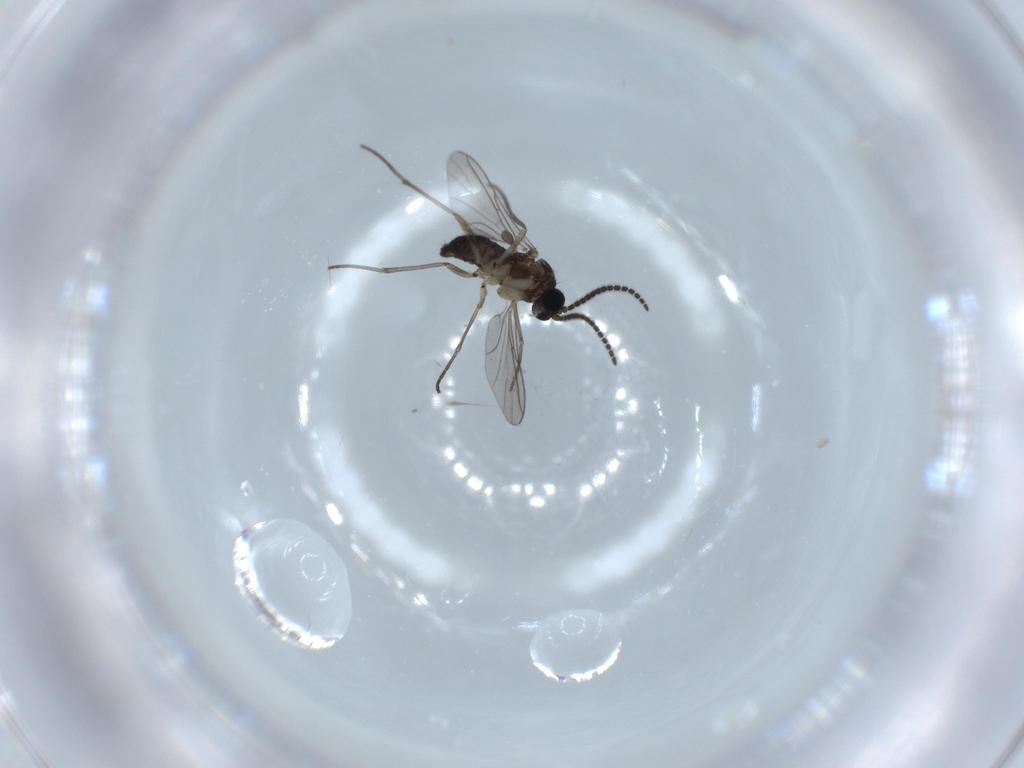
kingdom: Animalia
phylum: Arthropoda
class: Insecta
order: Diptera
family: Sciaridae
